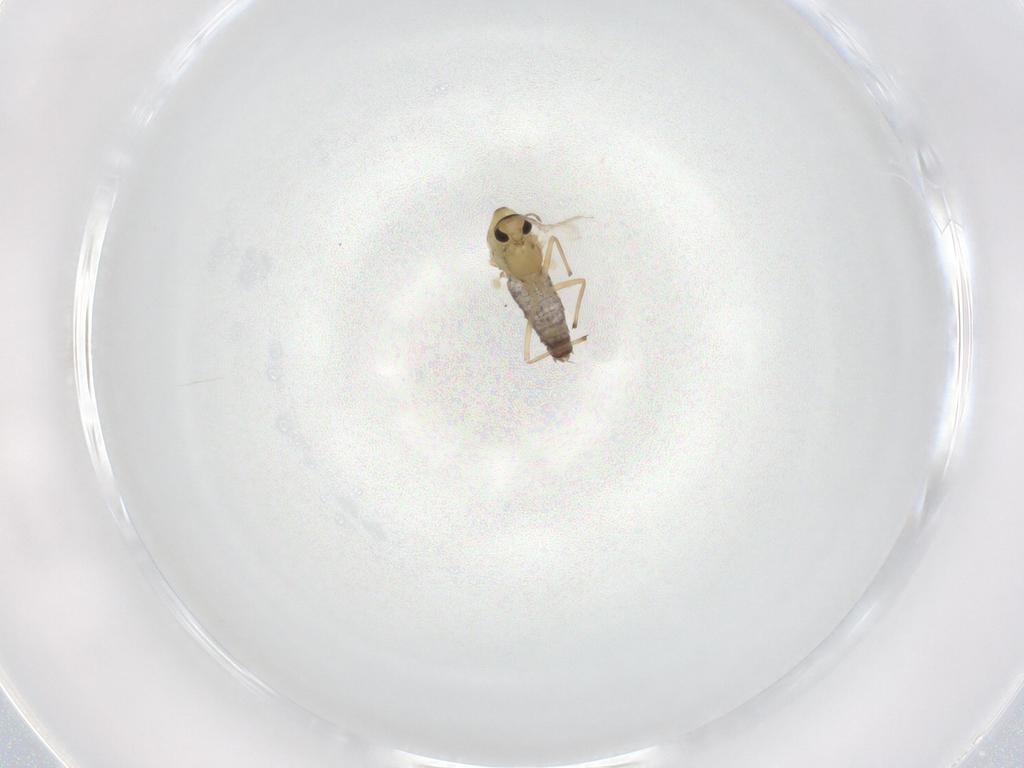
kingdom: Animalia
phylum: Arthropoda
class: Insecta
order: Diptera
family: Chironomidae
